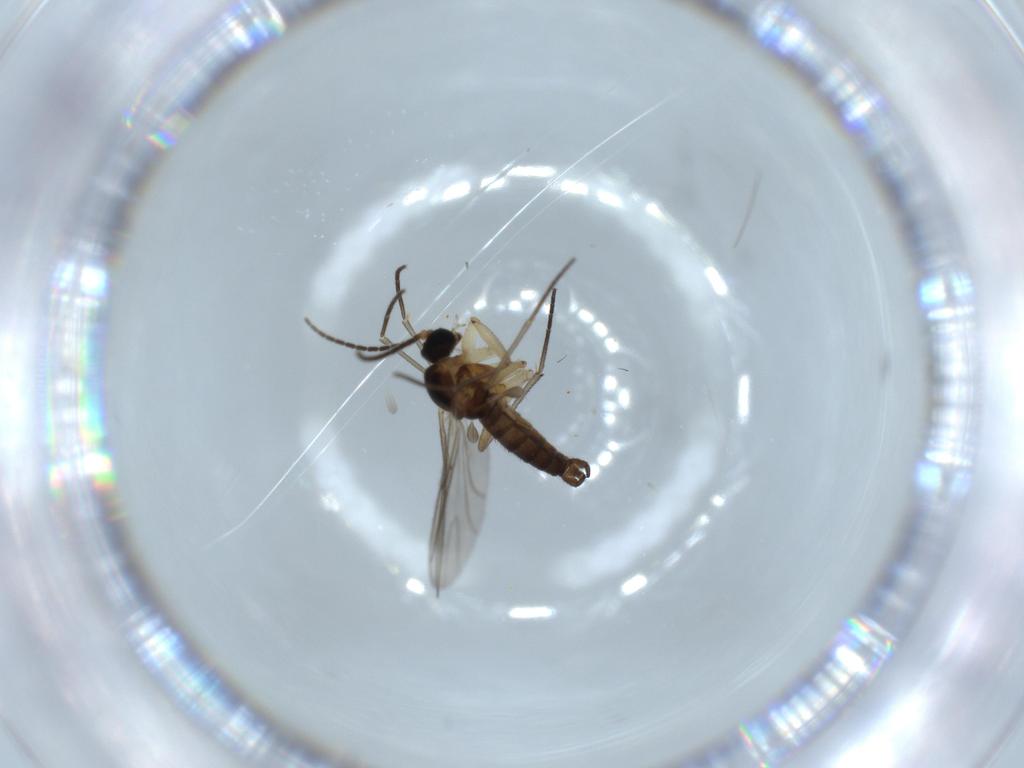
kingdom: Animalia
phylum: Arthropoda
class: Insecta
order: Diptera
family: Sciaridae
